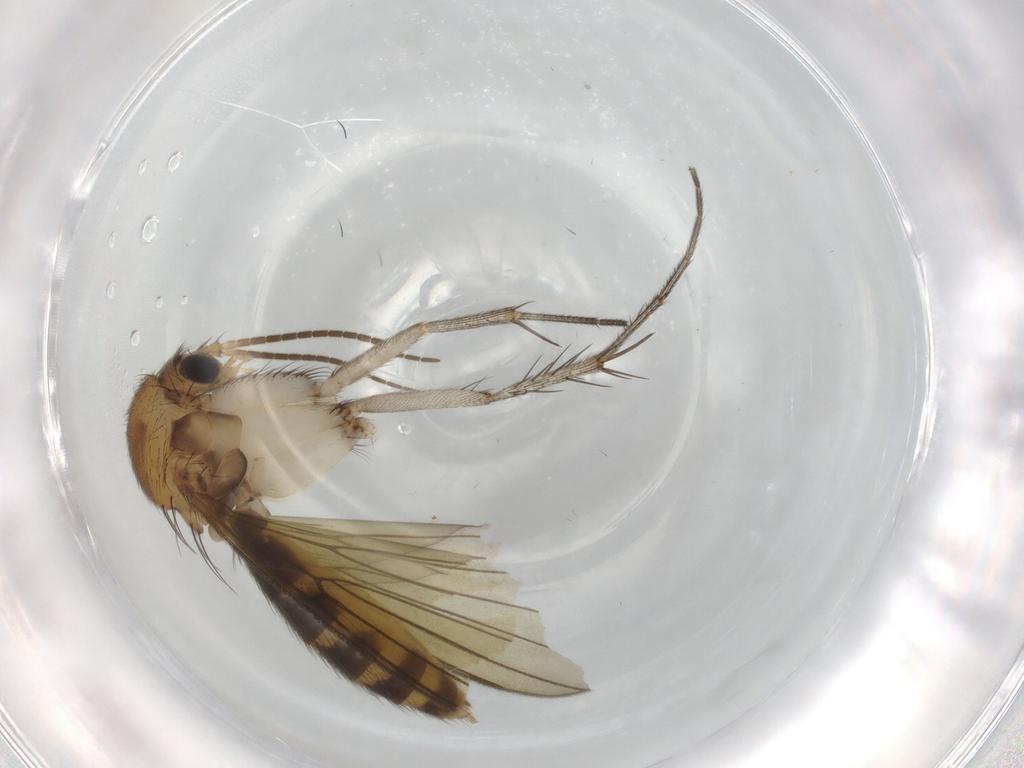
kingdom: Animalia
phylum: Arthropoda
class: Insecta
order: Diptera
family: Mycetophilidae
